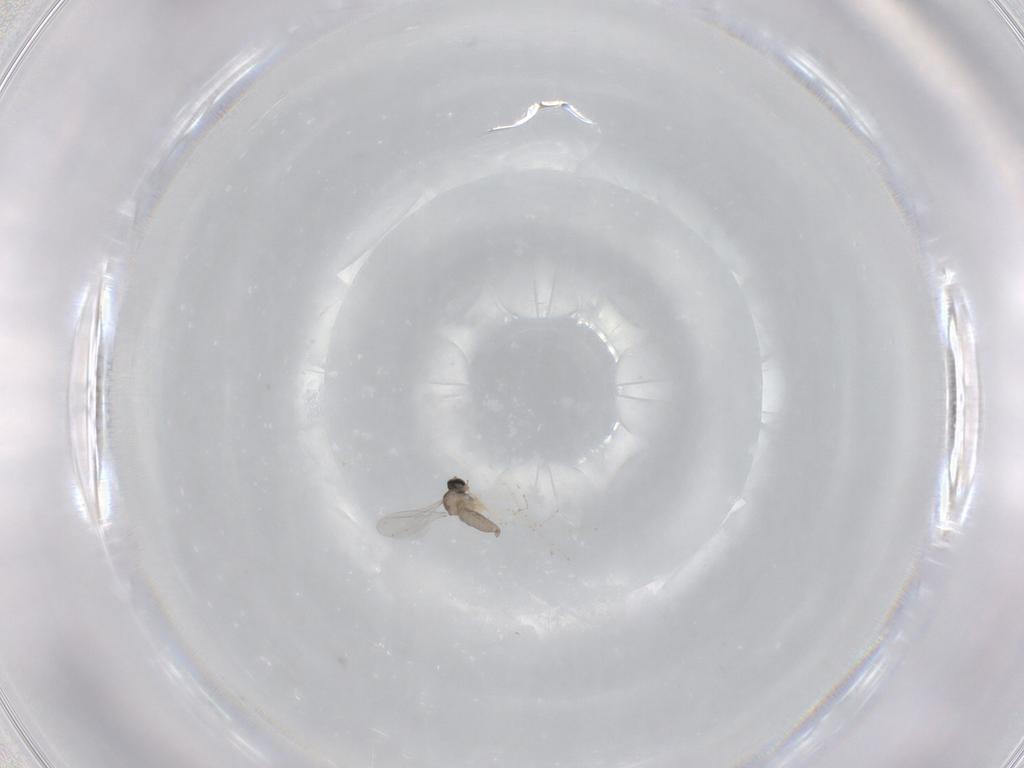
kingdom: Animalia
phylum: Arthropoda
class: Insecta
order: Diptera
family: Cecidomyiidae
